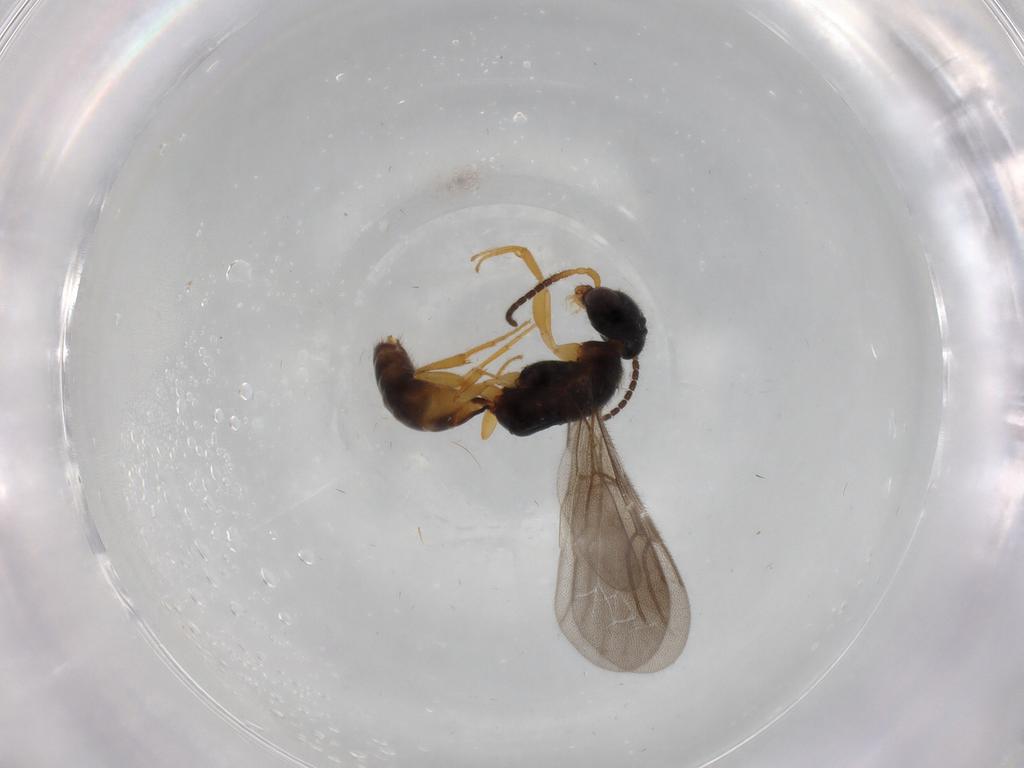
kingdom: Animalia
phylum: Arthropoda
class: Insecta
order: Hymenoptera
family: Bethylidae
